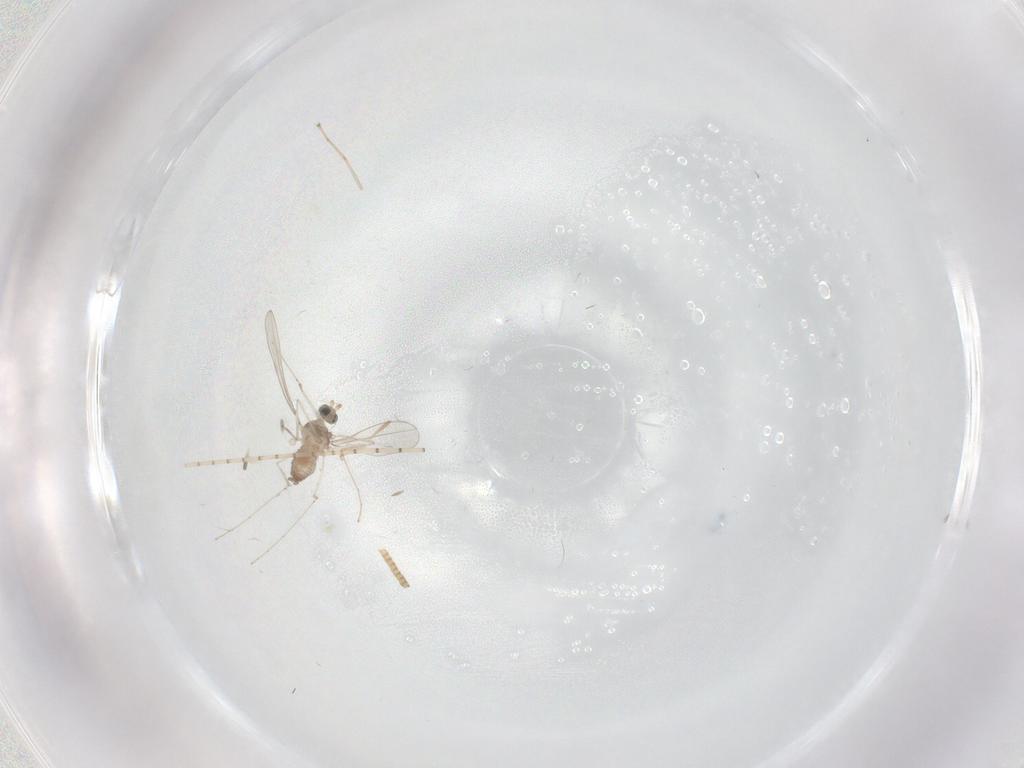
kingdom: Animalia
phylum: Arthropoda
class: Insecta
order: Diptera
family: Cecidomyiidae
